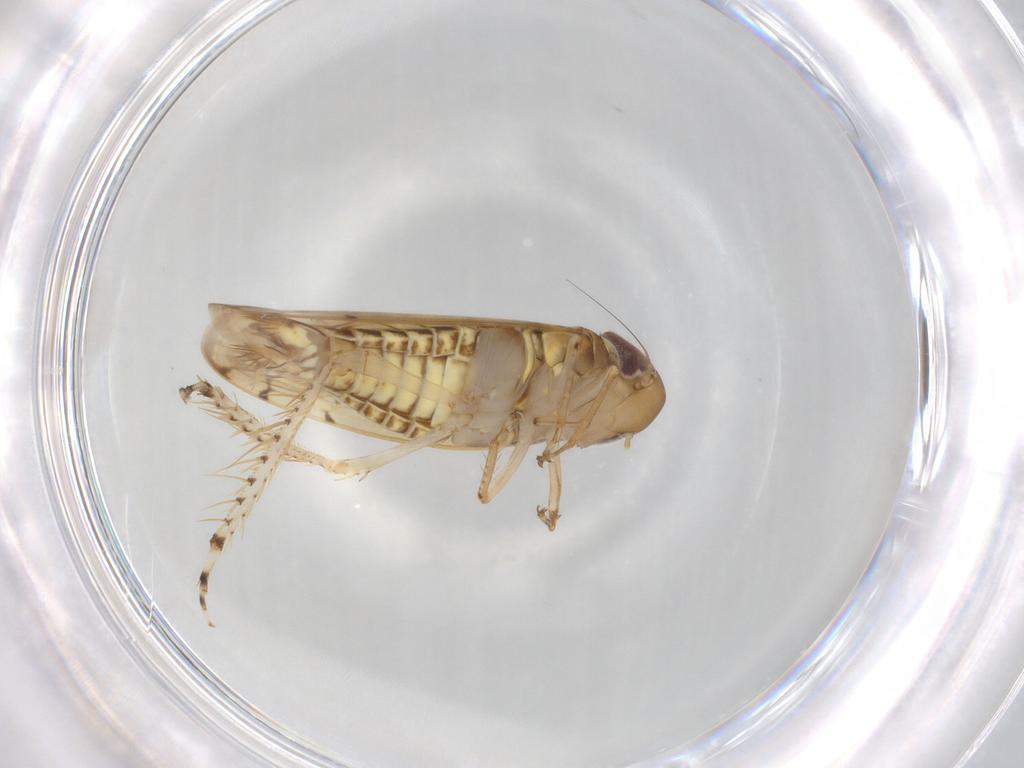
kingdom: Animalia
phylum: Arthropoda
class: Insecta
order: Hemiptera
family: Cicadellidae
